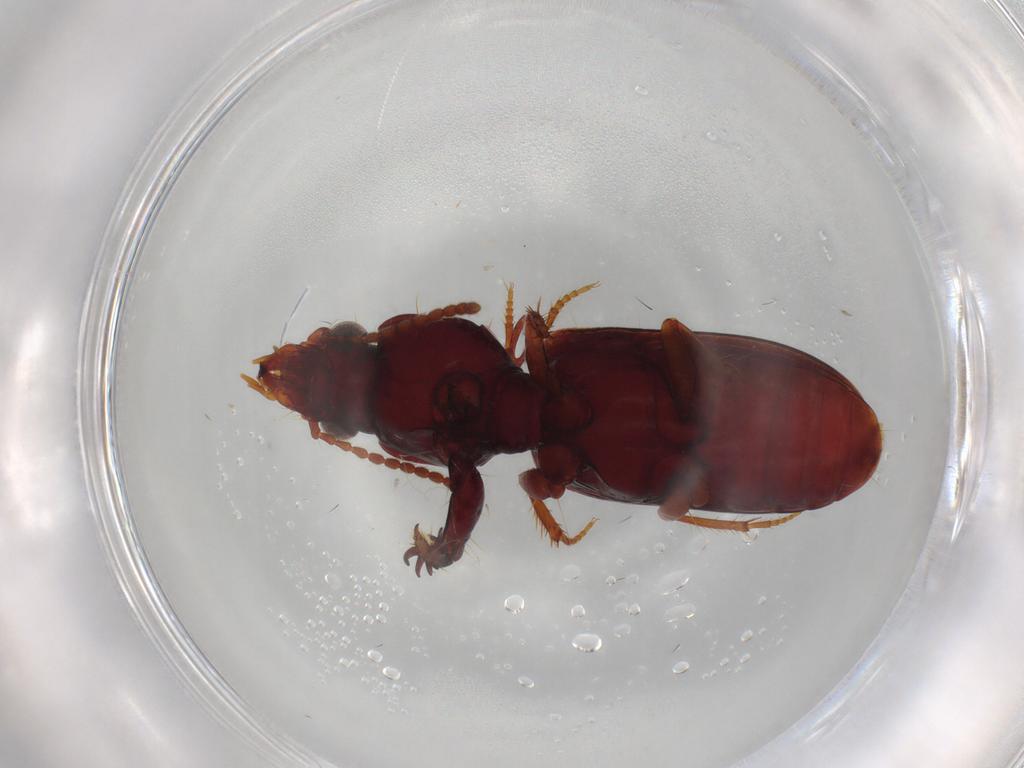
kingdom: Animalia
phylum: Arthropoda
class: Insecta
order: Coleoptera
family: Carabidae
